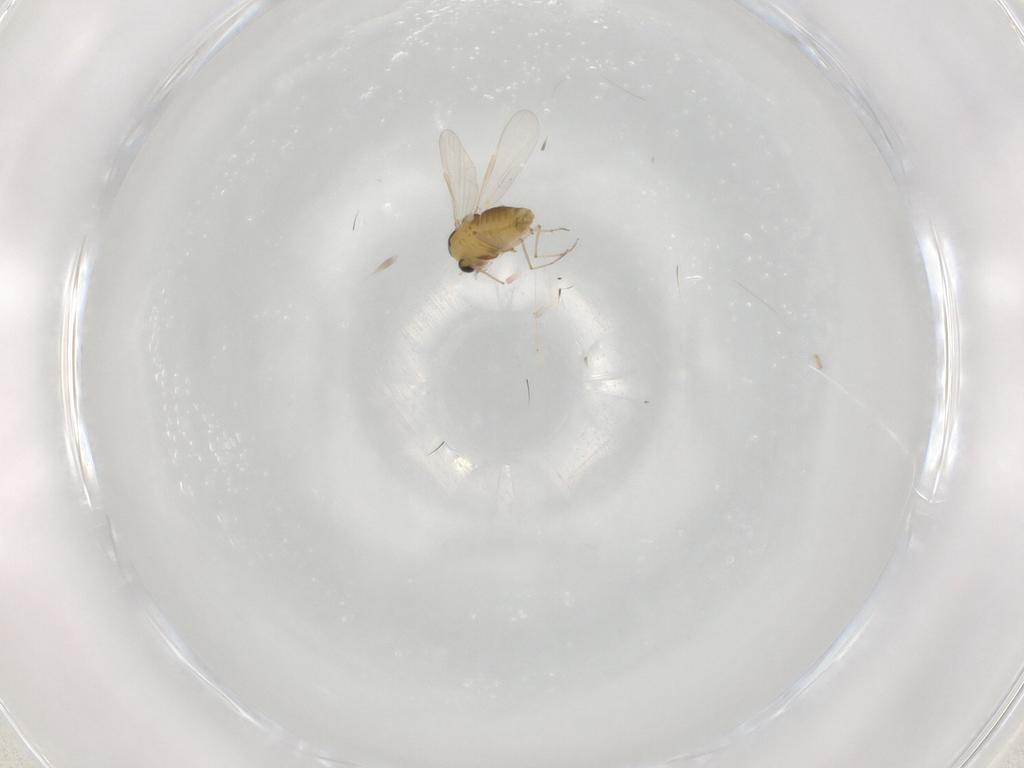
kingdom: Animalia
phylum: Arthropoda
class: Insecta
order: Diptera
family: Chironomidae
